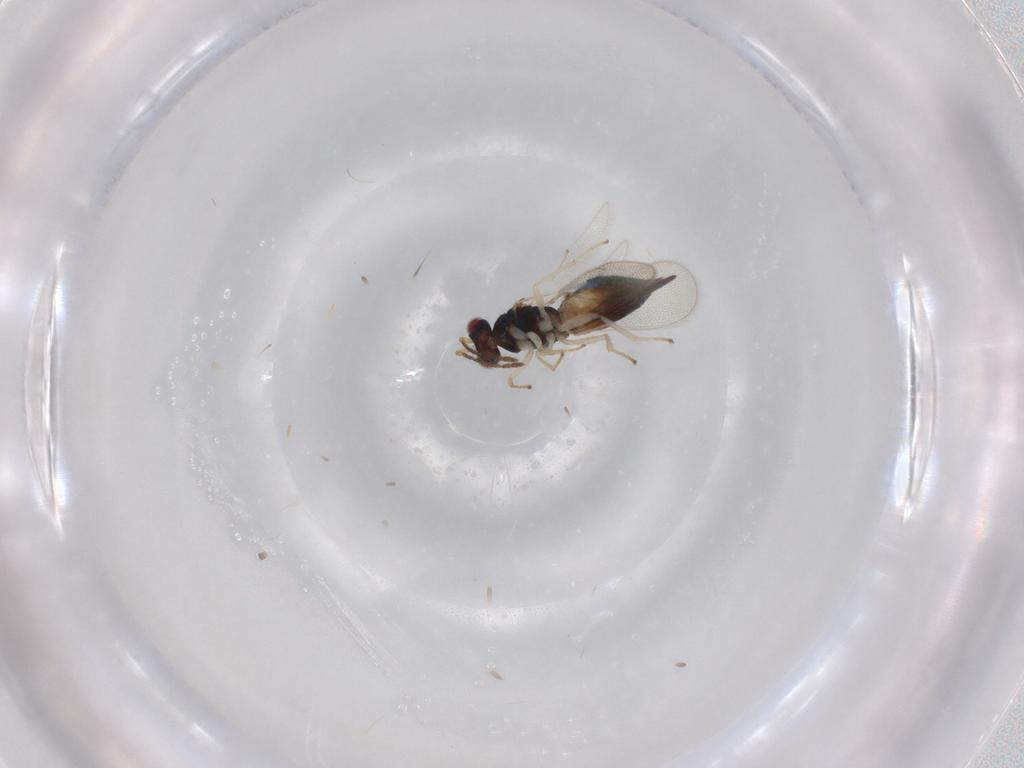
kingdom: Animalia
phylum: Arthropoda
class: Insecta
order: Hymenoptera
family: Eulophidae
